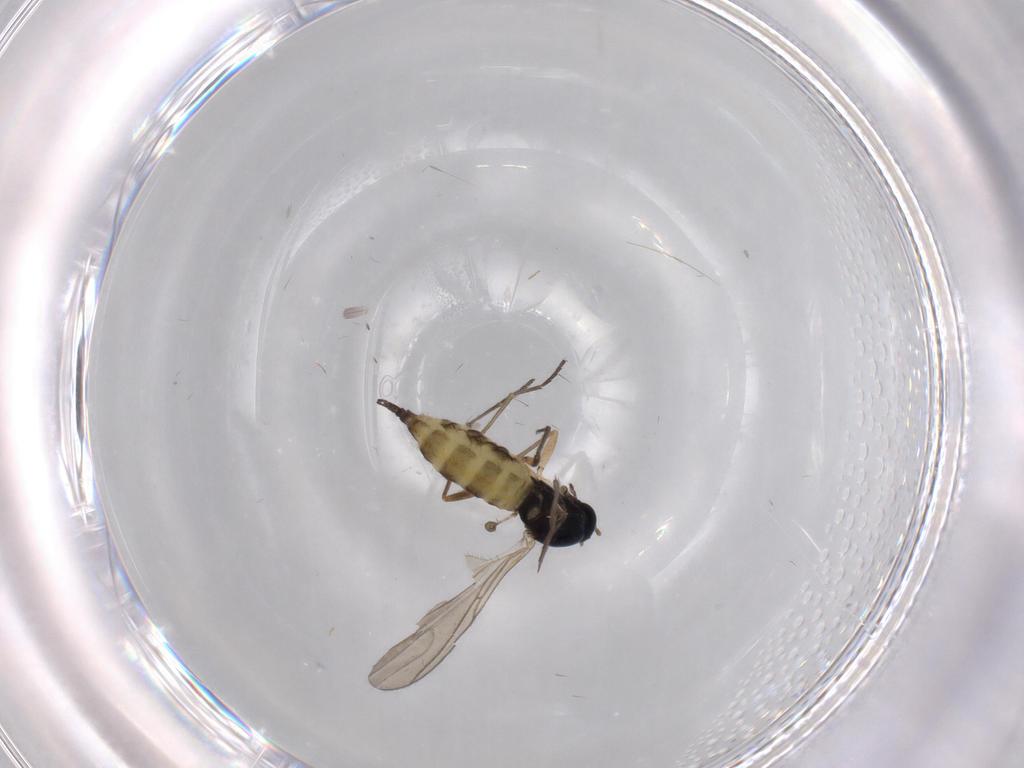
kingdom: Animalia
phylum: Arthropoda
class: Insecta
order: Diptera
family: Sciaridae
